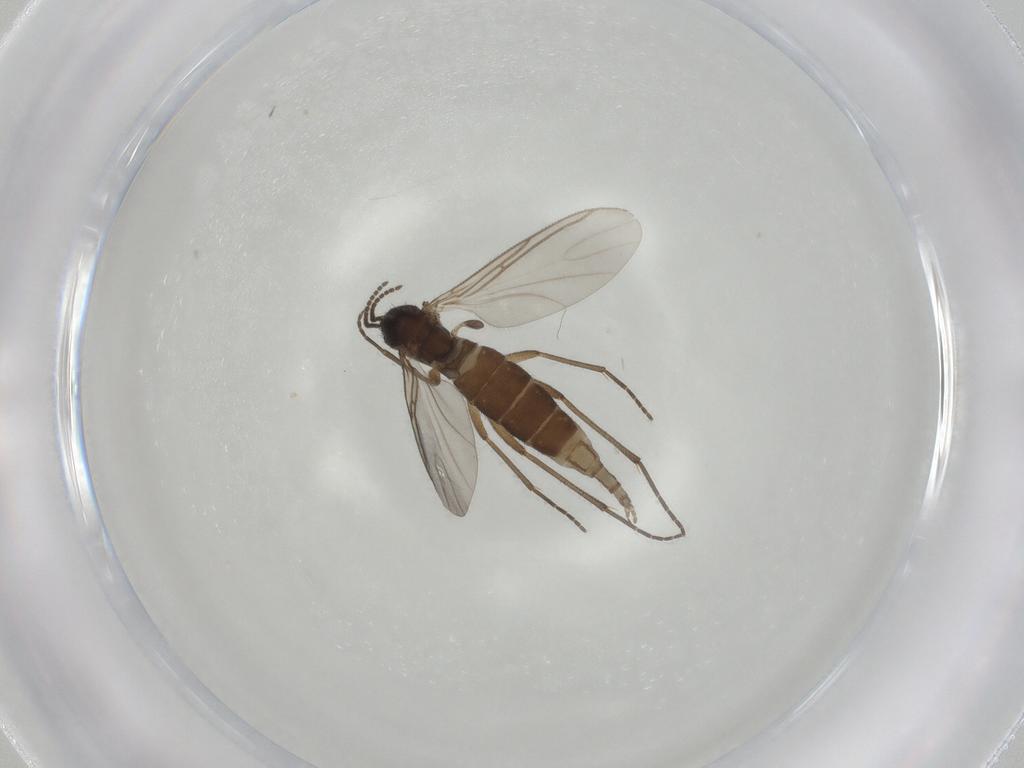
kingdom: Animalia
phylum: Arthropoda
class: Insecta
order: Diptera
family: Sciaridae
